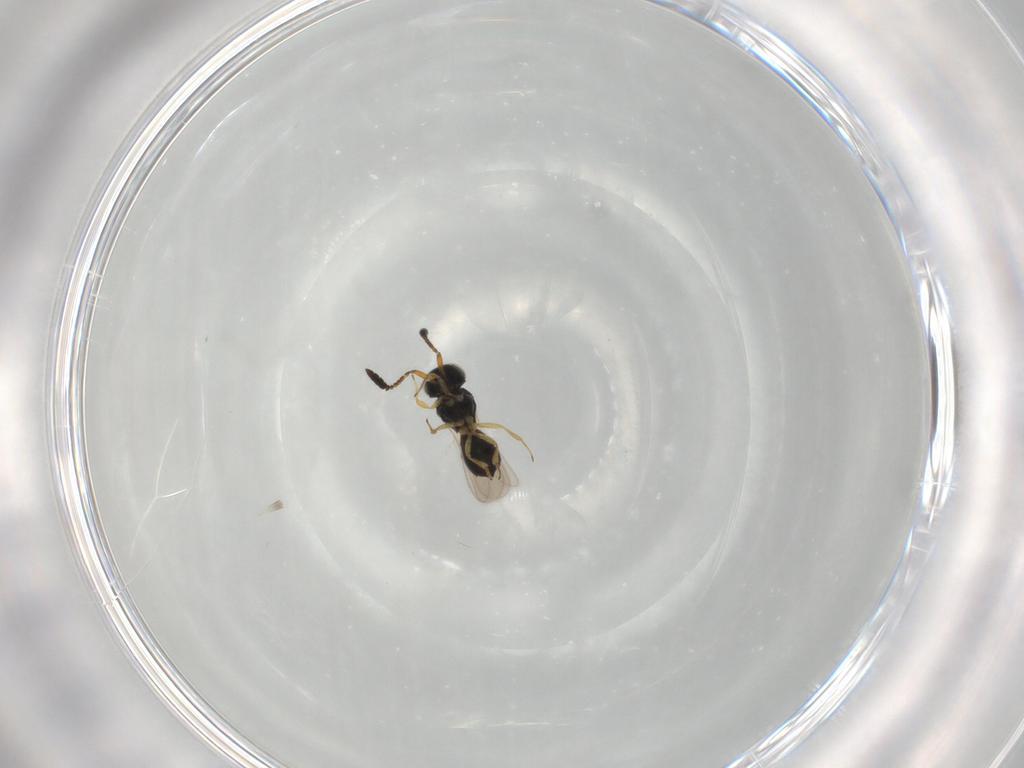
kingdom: Animalia
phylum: Arthropoda
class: Insecta
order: Hymenoptera
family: Scelionidae
